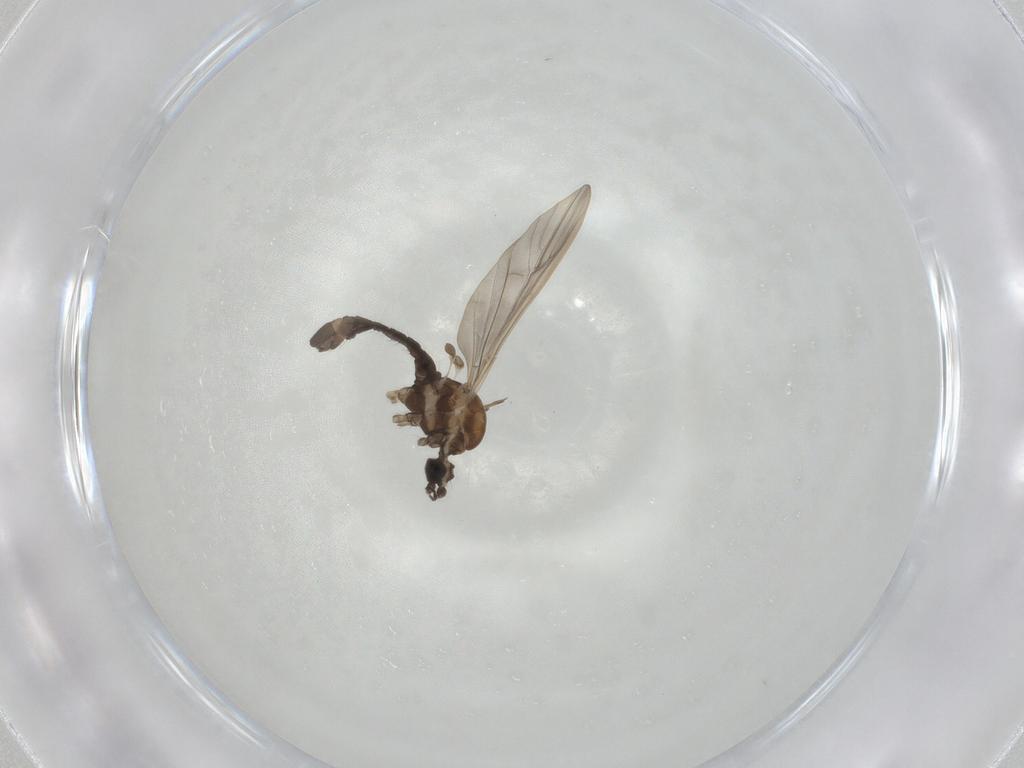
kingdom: Animalia
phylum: Arthropoda
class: Insecta
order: Diptera
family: Limoniidae
